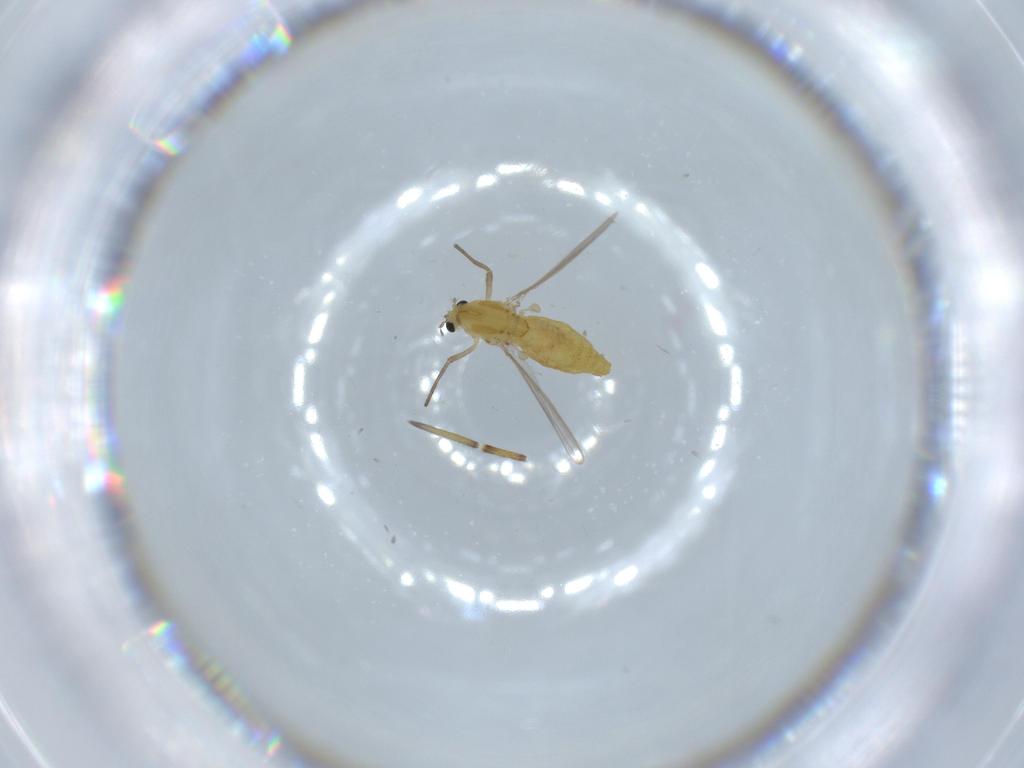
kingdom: Animalia
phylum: Arthropoda
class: Insecta
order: Diptera
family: Chironomidae
